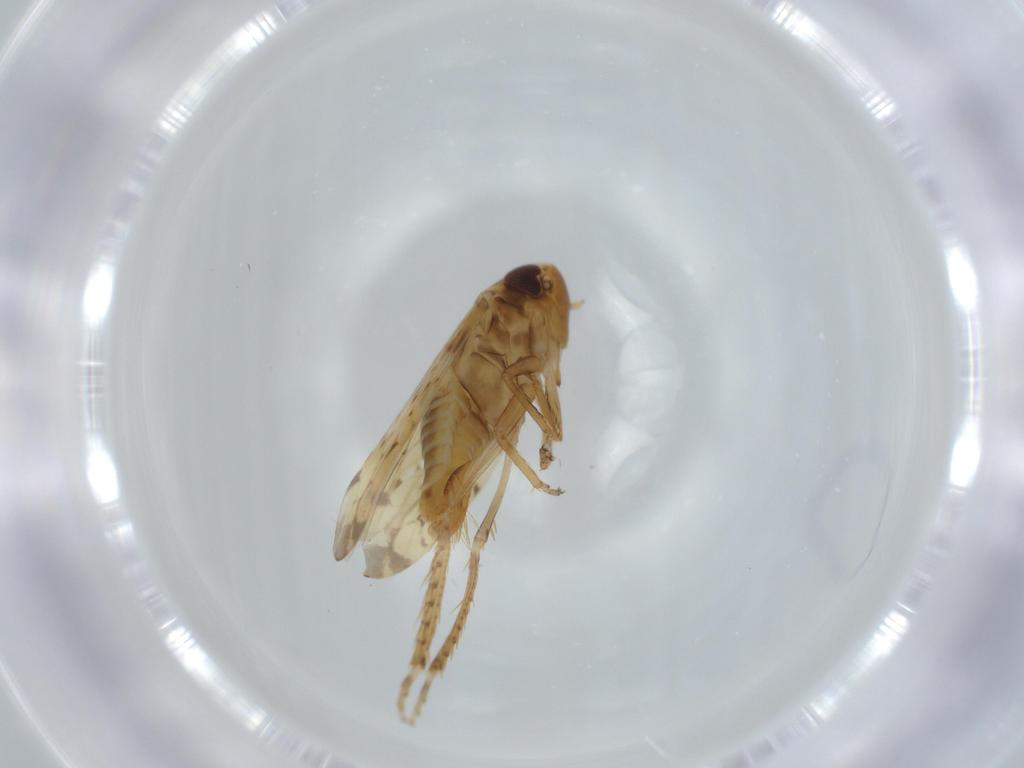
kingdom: Animalia
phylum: Arthropoda
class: Insecta
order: Hemiptera
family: Cicadellidae
